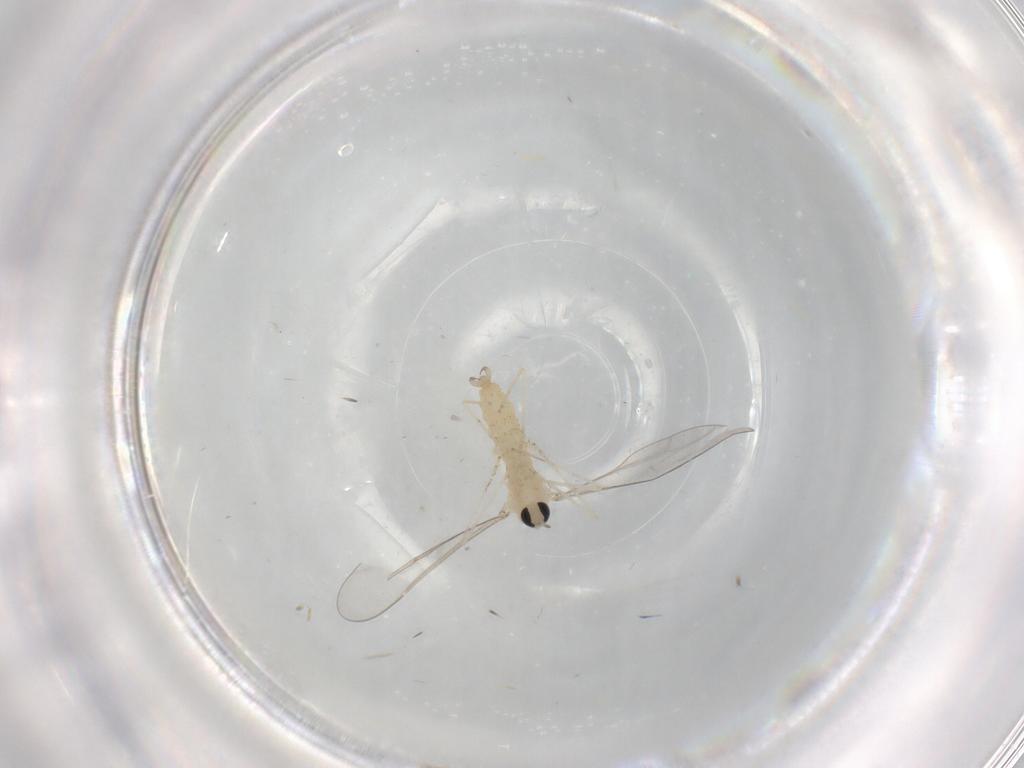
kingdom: Animalia
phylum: Arthropoda
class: Insecta
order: Diptera
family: Cecidomyiidae
